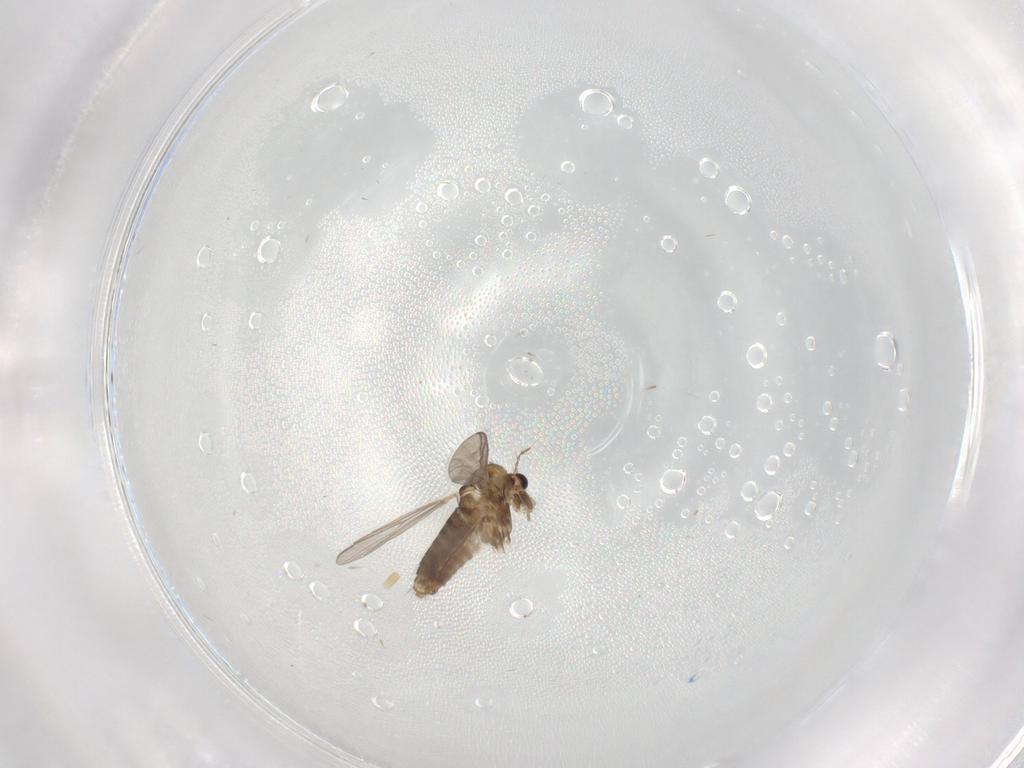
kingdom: Animalia
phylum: Arthropoda
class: Insecta
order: Diptera
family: Chironomidae
